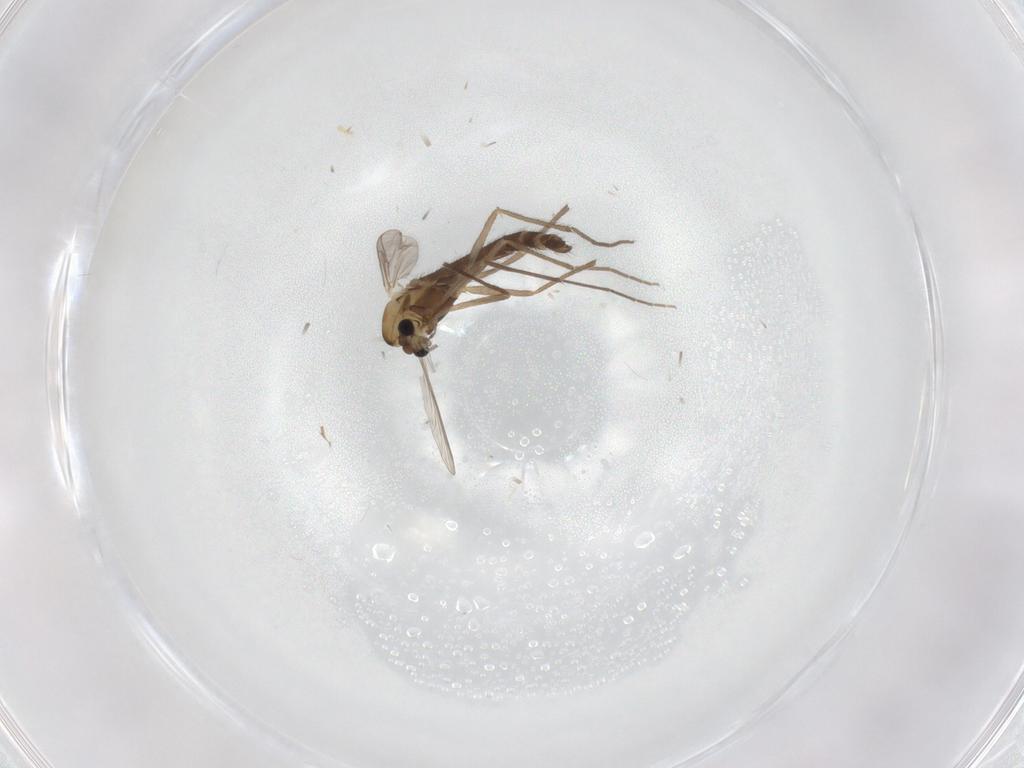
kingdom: Animalia
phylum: Arthropoda
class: Insecta
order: Diptera
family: Chironomidae
